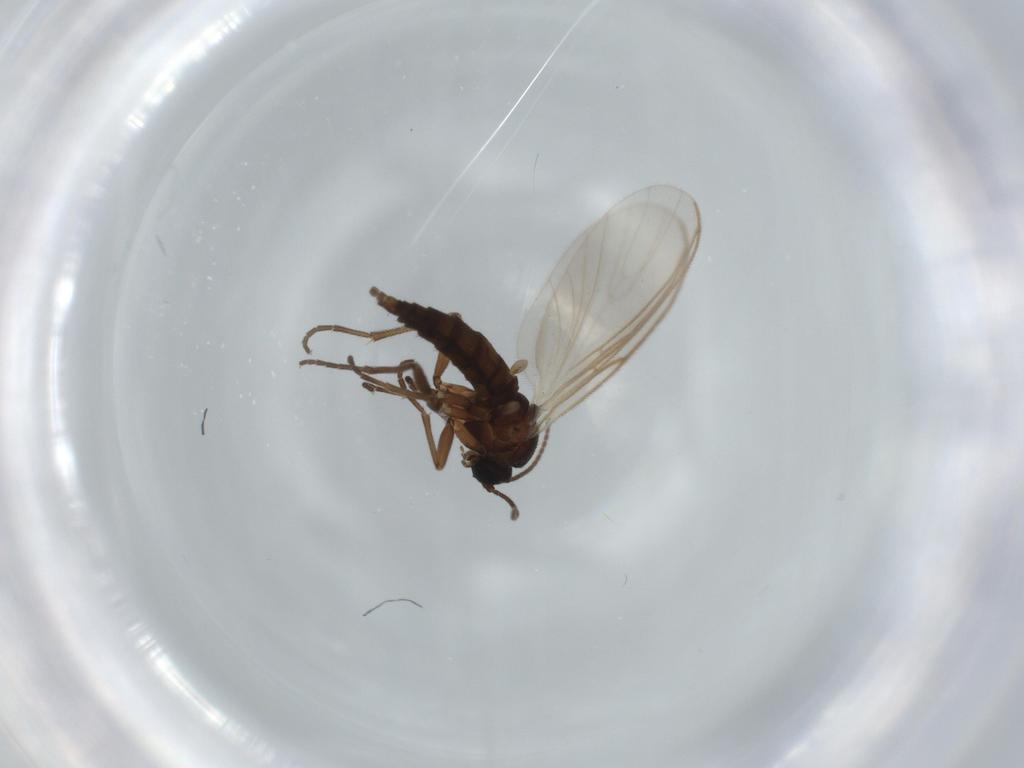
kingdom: Animalia
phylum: Arthropoda
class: Insecta
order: Diptera
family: Sciaridae
